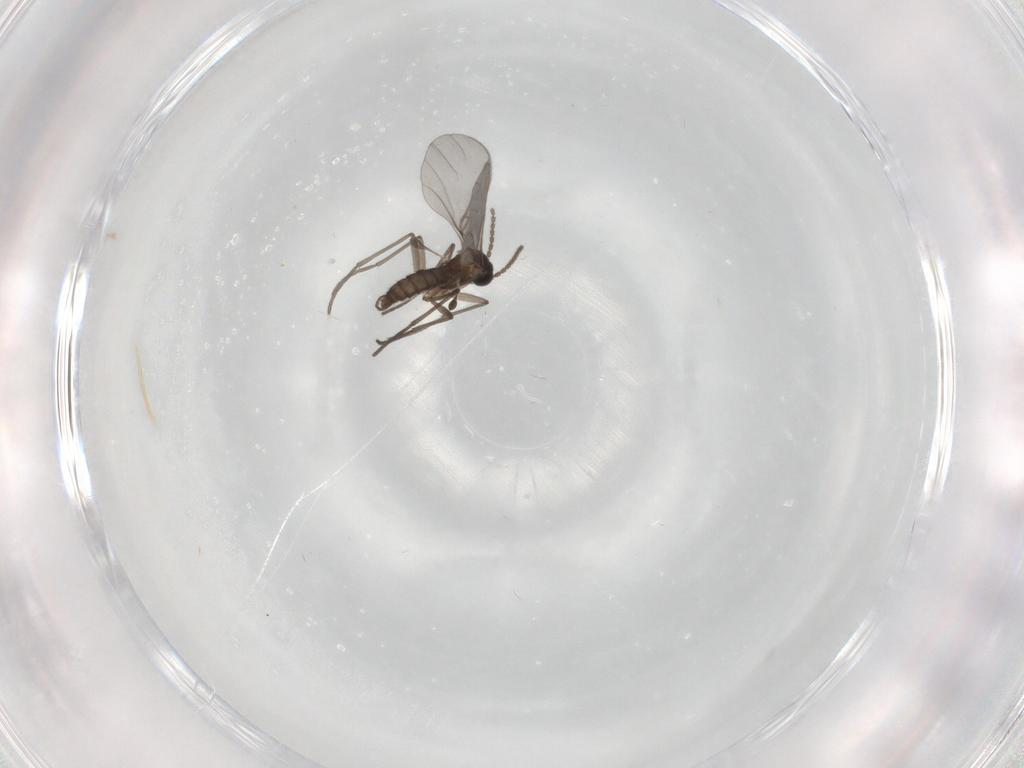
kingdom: Animalia
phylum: Arthropoda
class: Insecta
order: Diptera
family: Sciaridae
